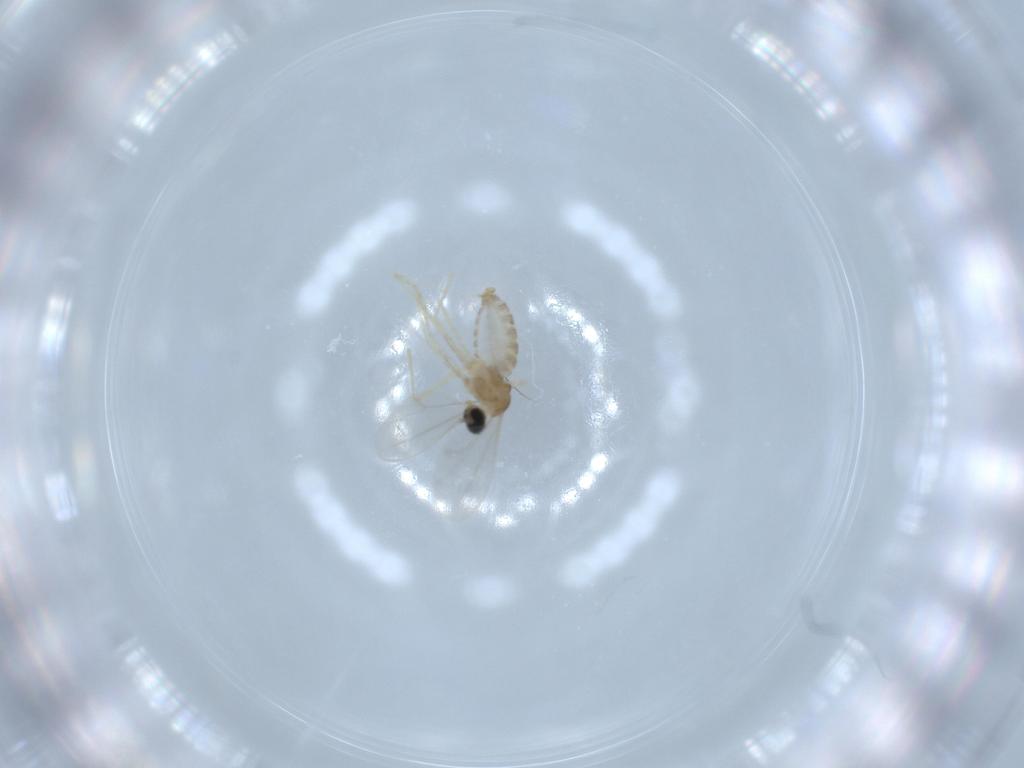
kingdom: Animalia
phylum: Arthropoda
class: Insecta
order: Diptera
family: Cecidomyiidae
